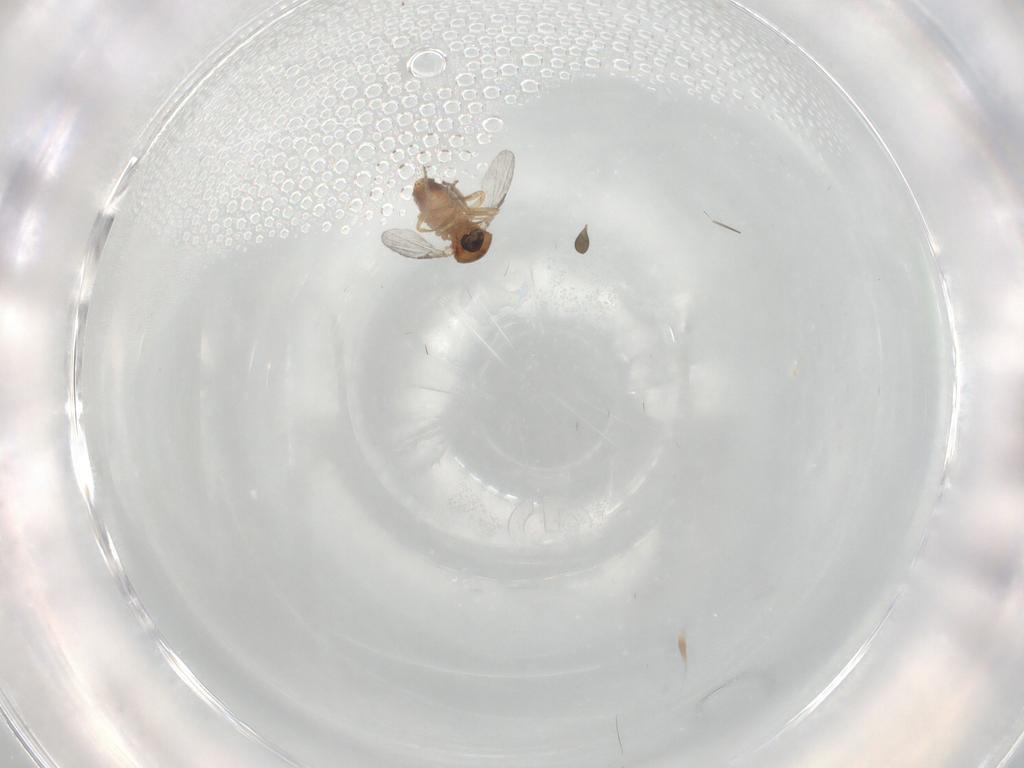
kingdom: Animalia
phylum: Arthropoda
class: Insecta
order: Diptera
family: Ceratopogonidae
